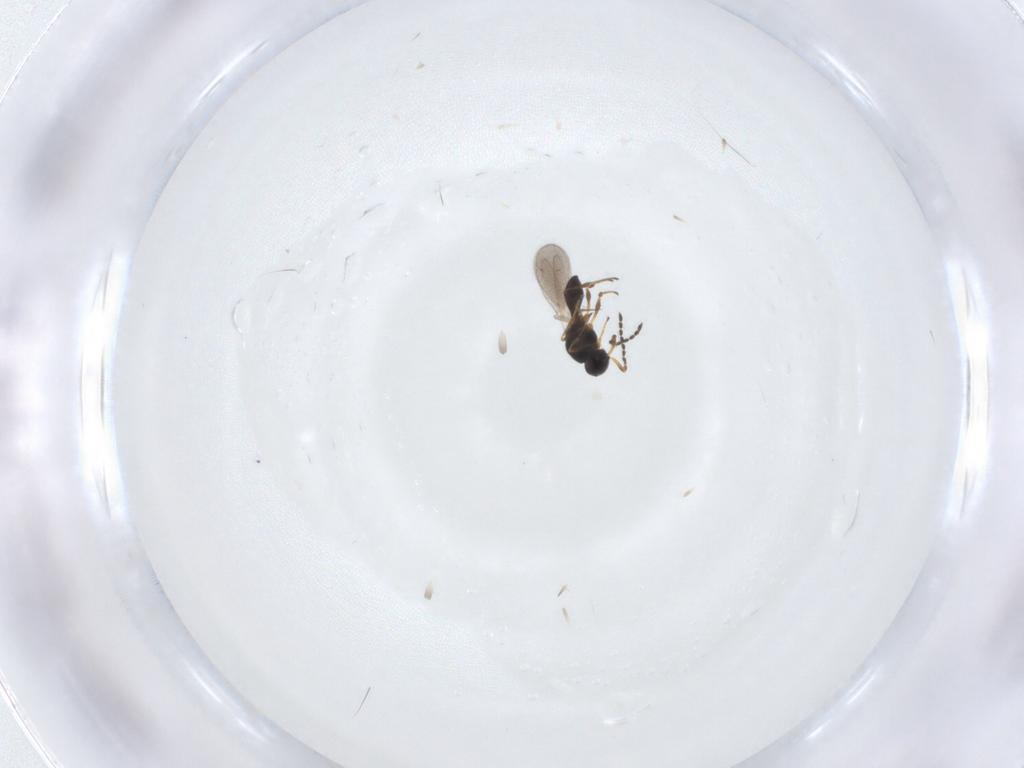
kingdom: Animalia
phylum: Arthropoda
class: Insecta
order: Hymenoptera
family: Platygastridae
